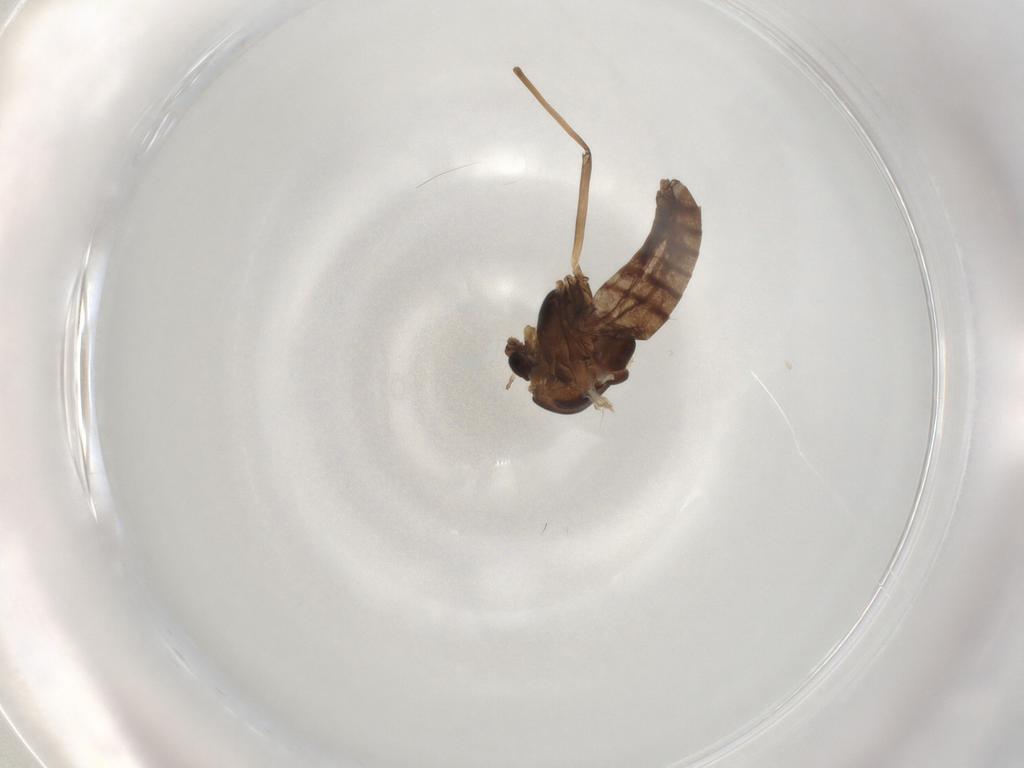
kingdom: Animalia
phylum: Arthropoda
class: Insecta
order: Diptera
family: Chironomidae
